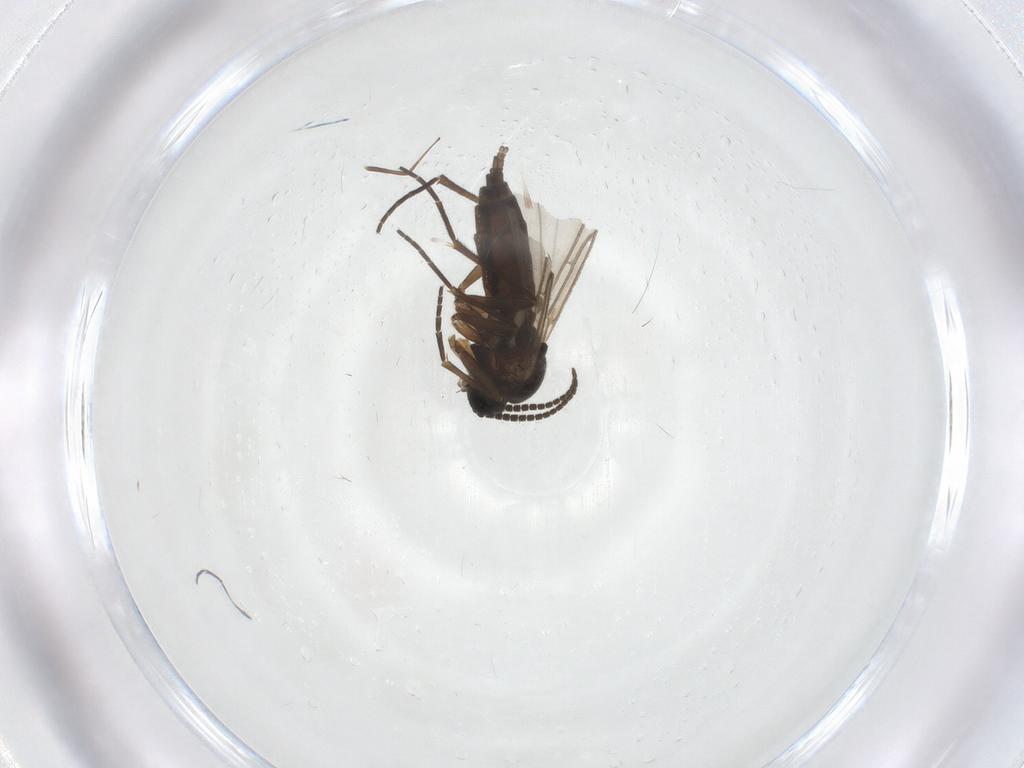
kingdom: Animalia
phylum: Arthropoda
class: Insecta
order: Diptera
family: Sciaridae
